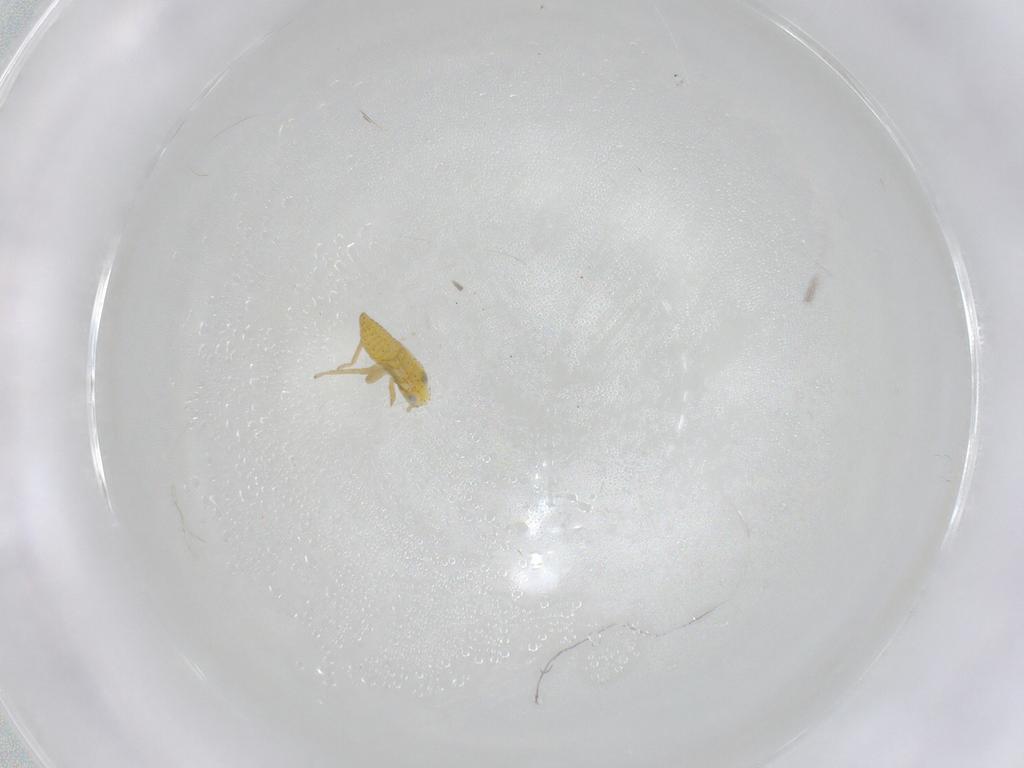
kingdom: Animalia
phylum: Arthropoda
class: Insecta
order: Hemiptera
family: Cicadellidae
